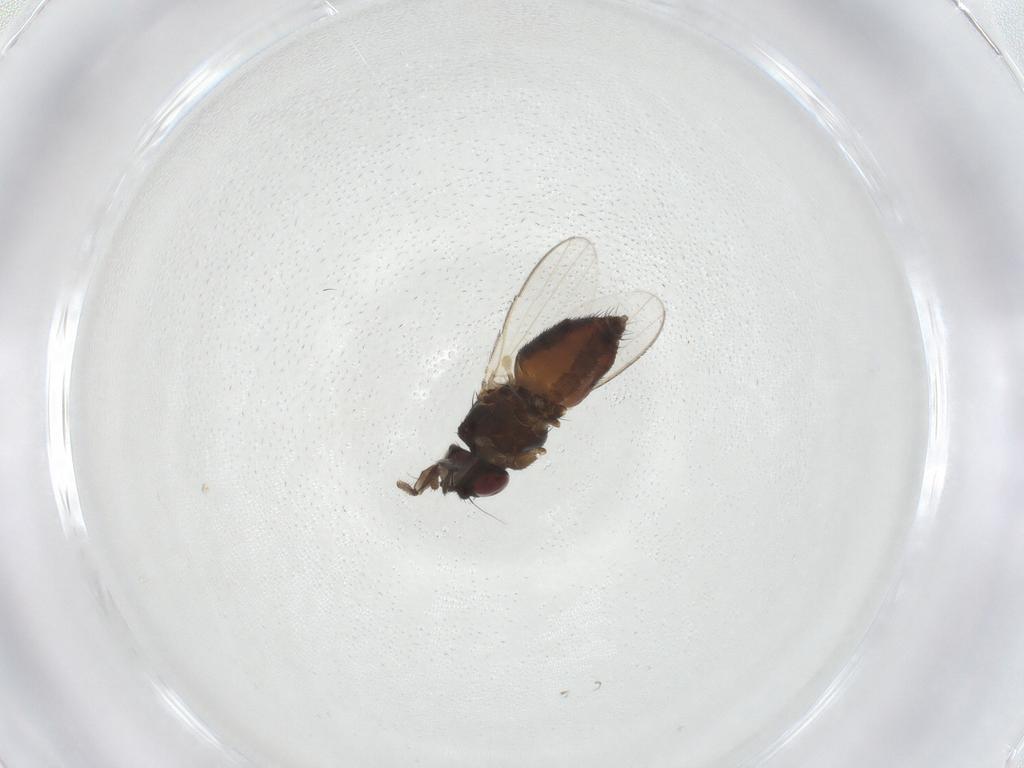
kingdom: Animalia
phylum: Arthropoda
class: Insecta
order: Diptera
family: Milichiidae
